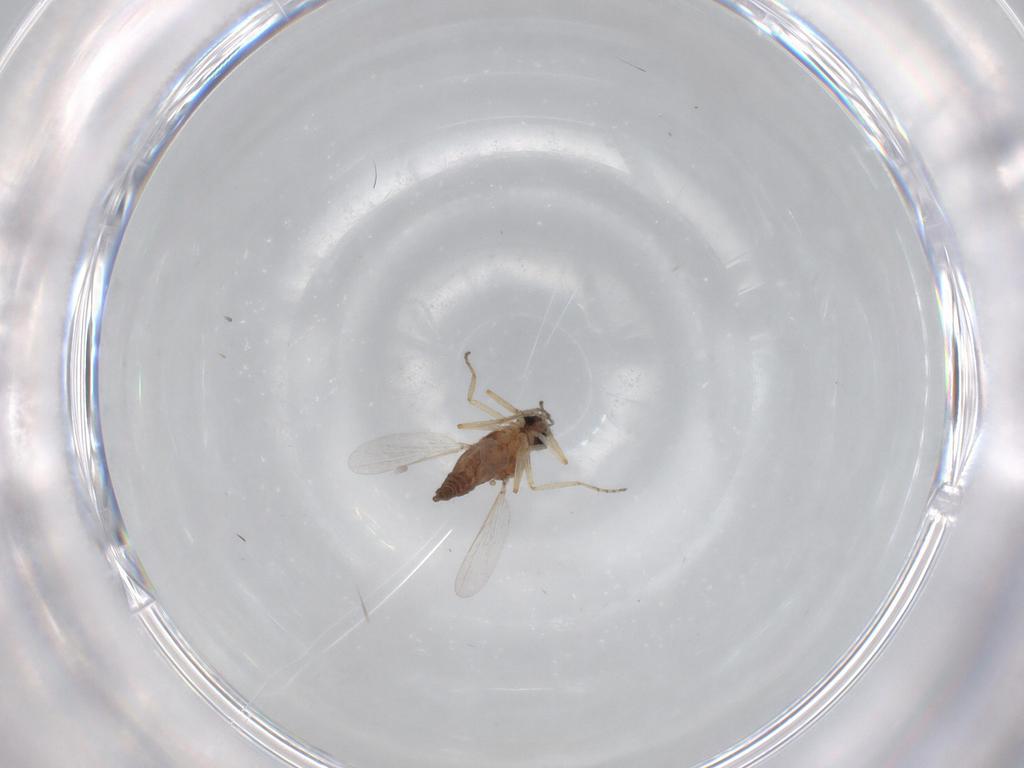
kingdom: Animalia
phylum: Arthropoda
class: Insecta
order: Diptera
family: Ceratopogonidae
